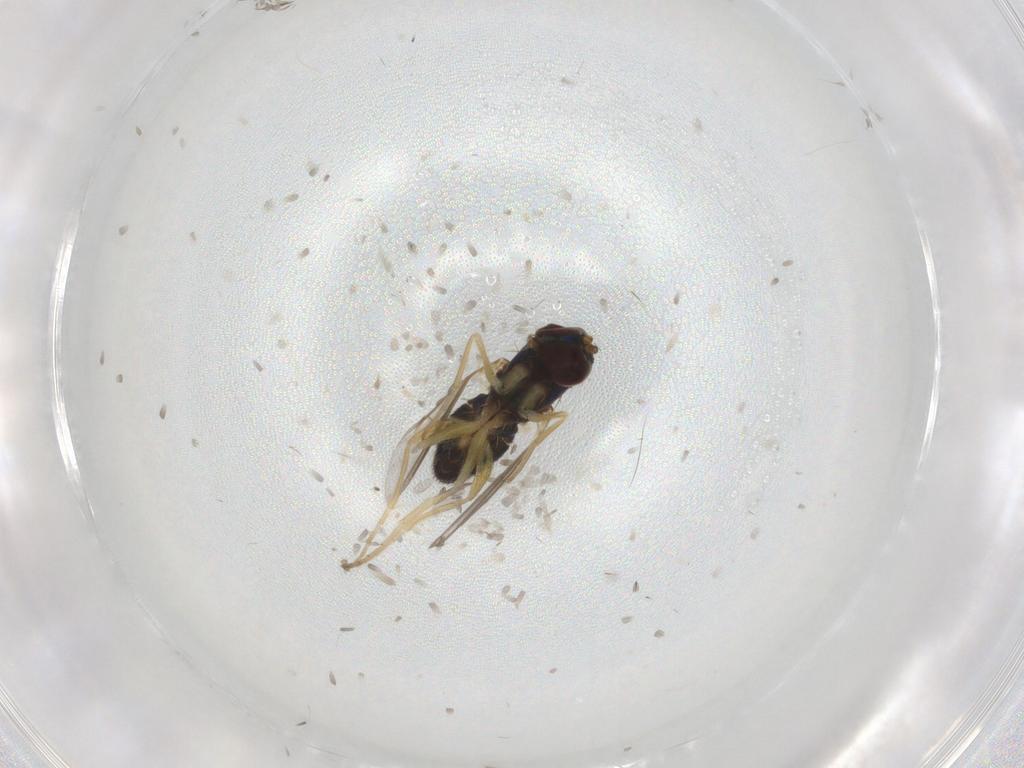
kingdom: Animalia
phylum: Arthropoda
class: Insecta
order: Diptera
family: Dolichopodidae
